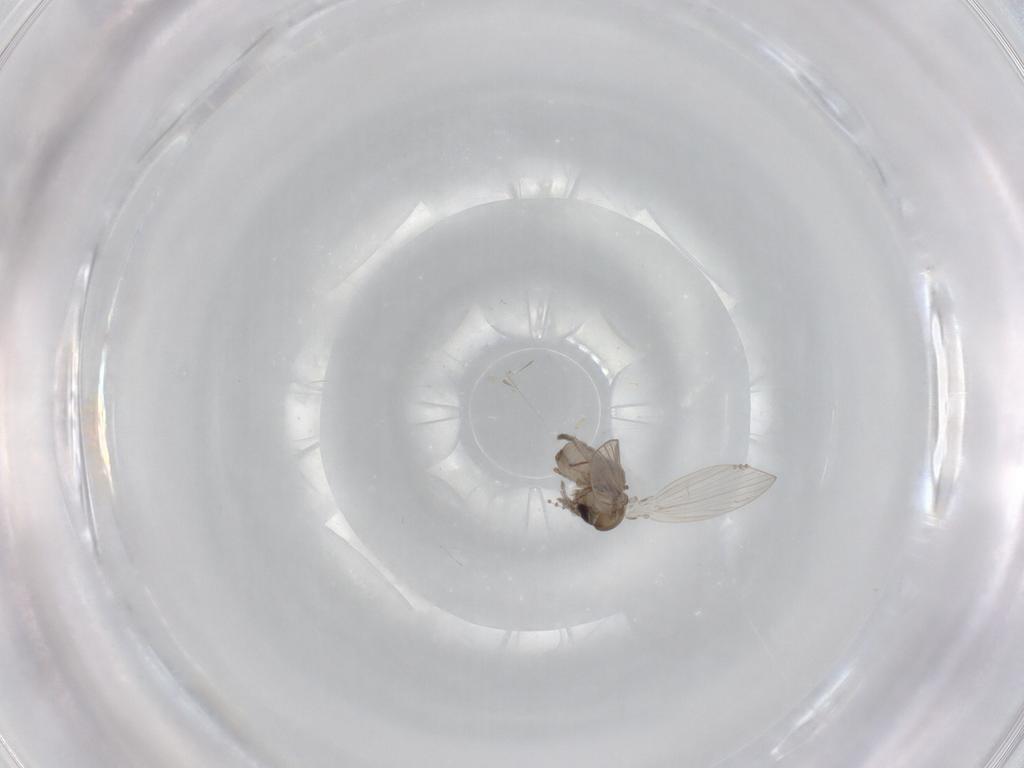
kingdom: Animalia
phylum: Arthropoda
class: Insecta
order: Diptera
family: Psychodidae
